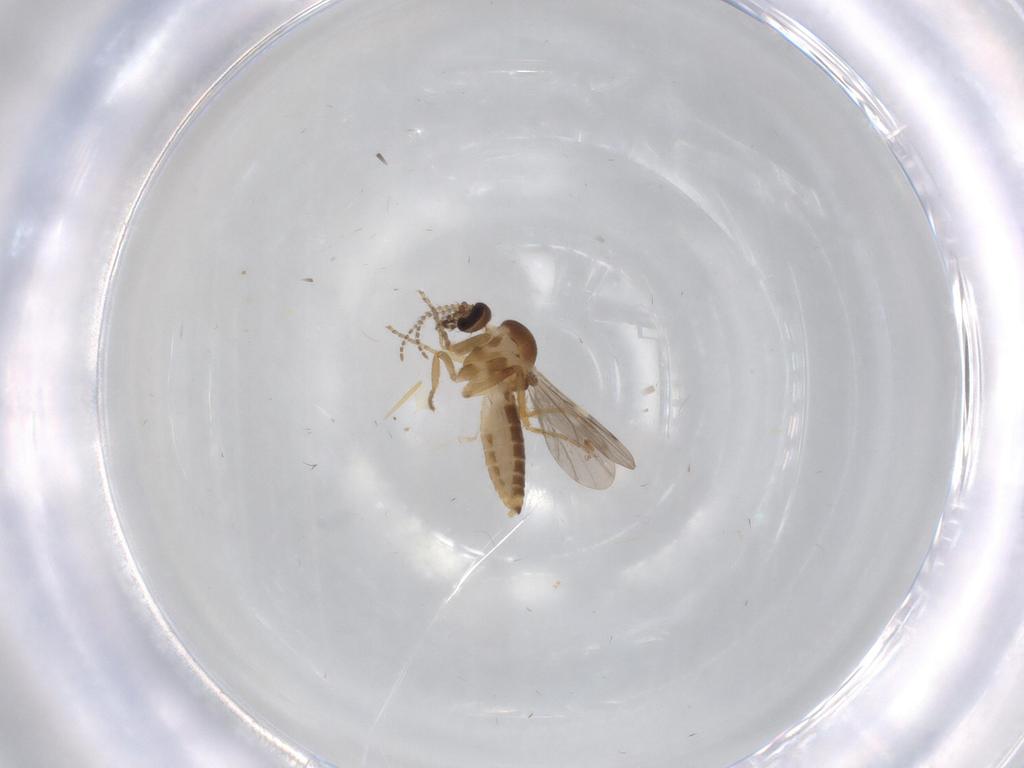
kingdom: Animalia
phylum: Arthropoda
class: Insecta
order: Diptera
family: Ceratopogonidae
